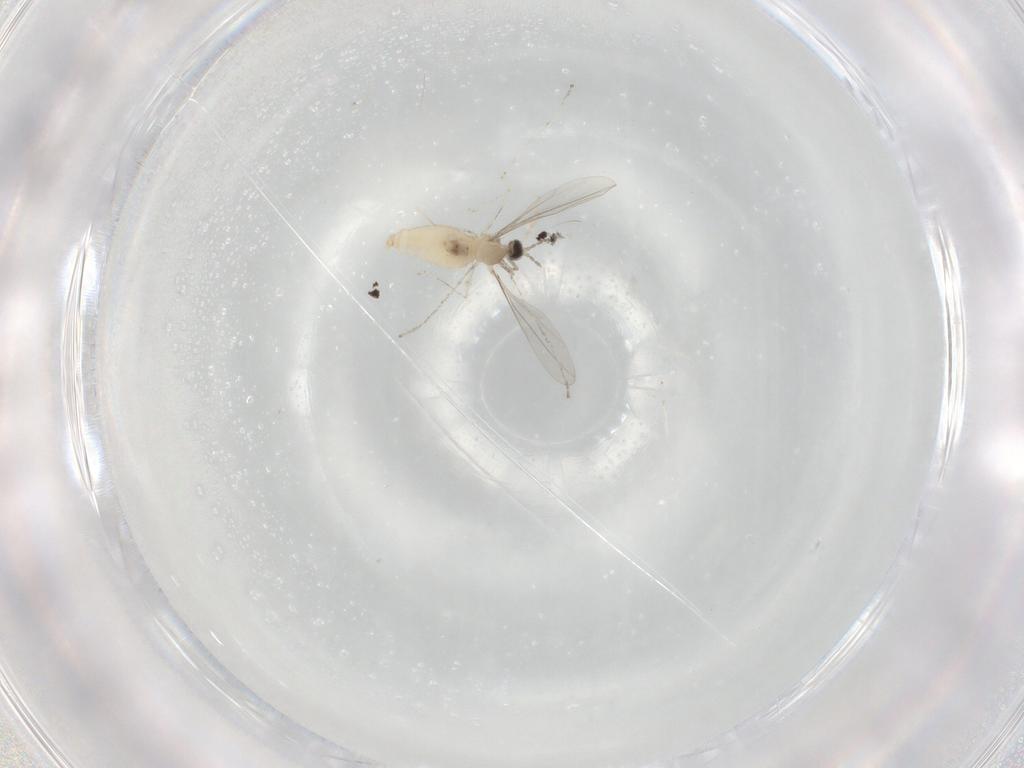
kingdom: Animalia
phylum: Arthropoda
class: Insecta
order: Diptera
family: Cecidomyiidae
